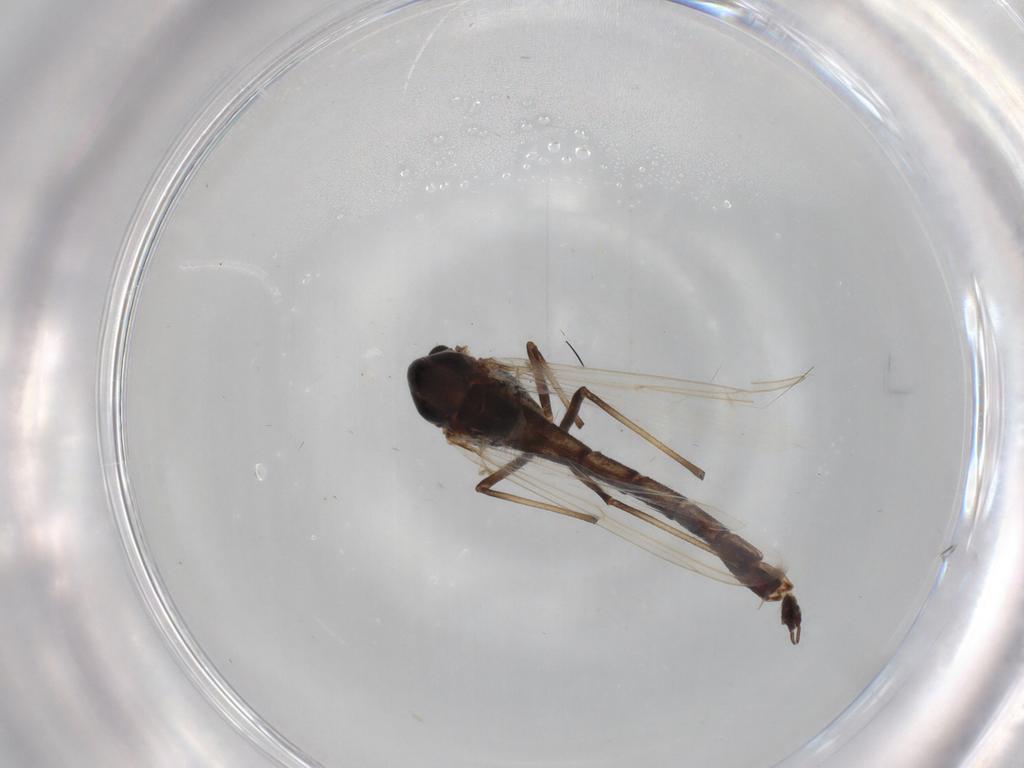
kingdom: Animalia
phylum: Arthropoda
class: Insecta
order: Diptera
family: Chironomidae
